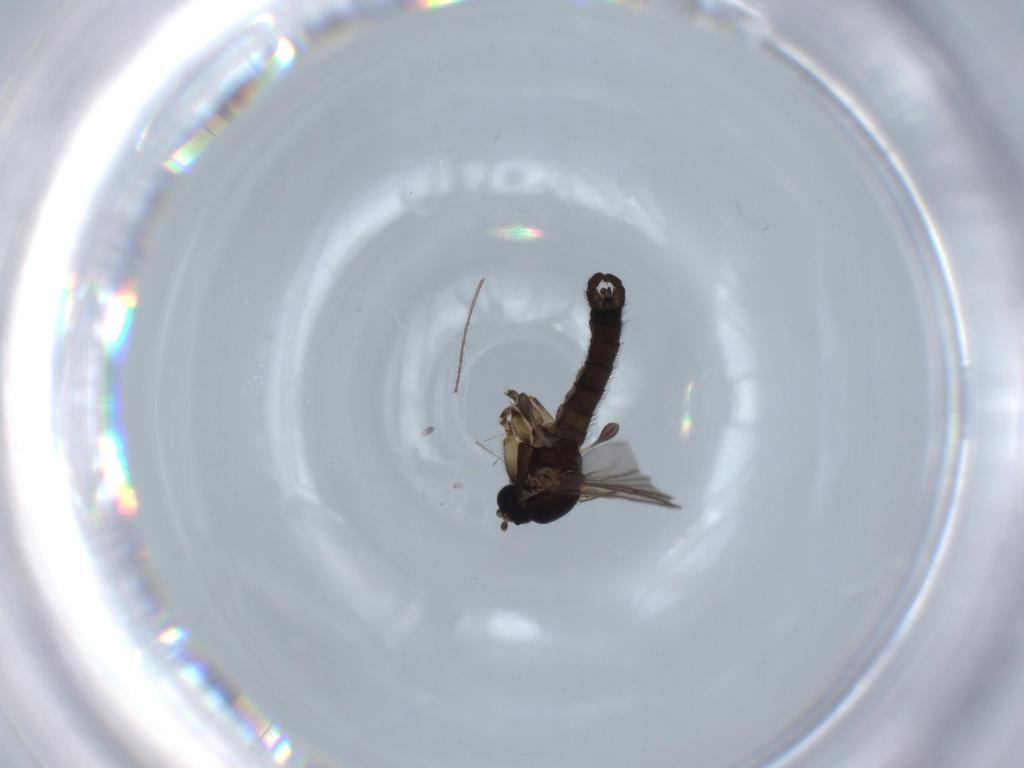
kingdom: Animalia
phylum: Arthropoda
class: Insecta
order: Diptera
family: Sciaridae
